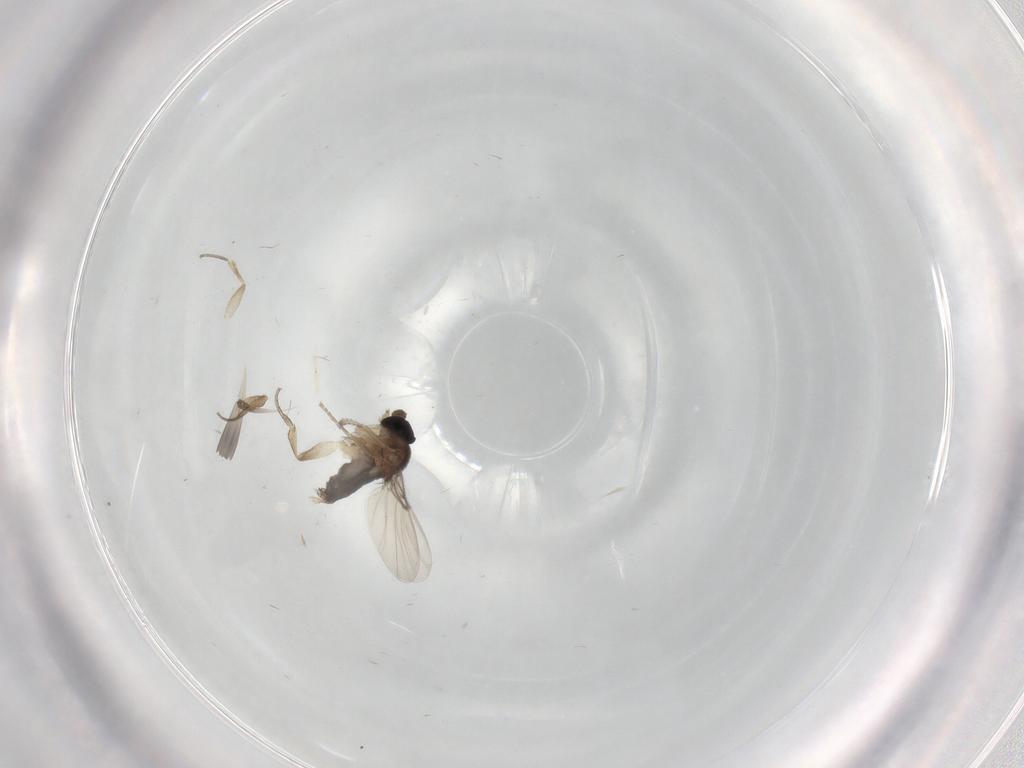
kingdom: Animalia
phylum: Arthropoda
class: Insecta
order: Diptera
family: Phoridae
